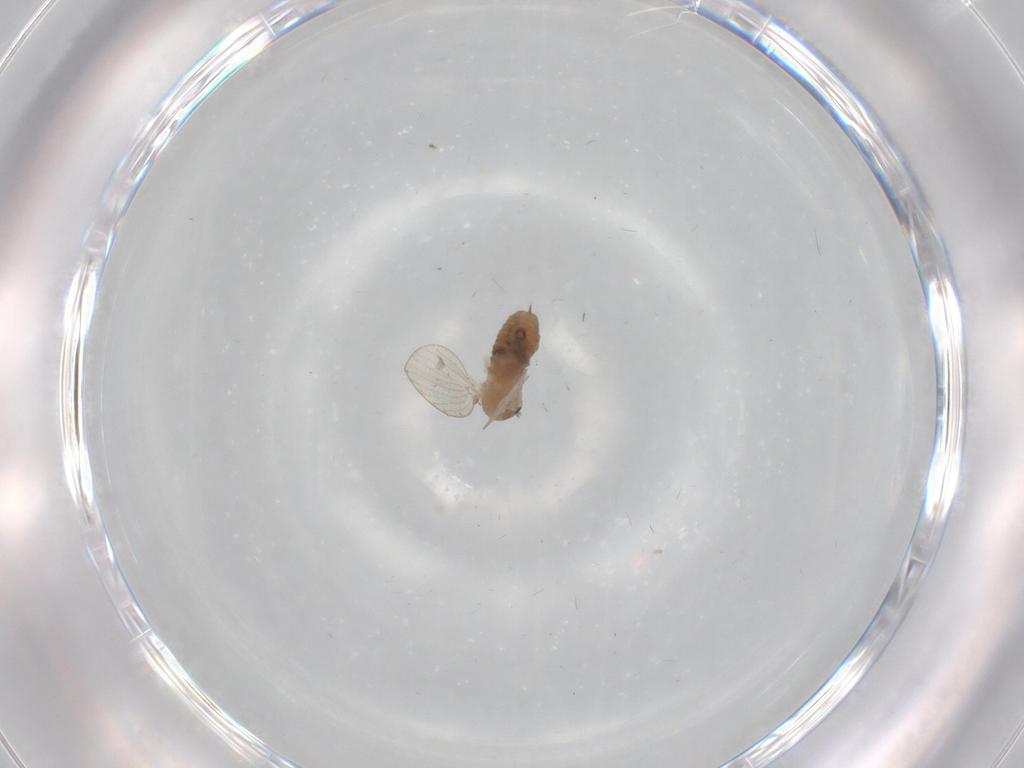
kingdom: Animalia
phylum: Arthropoda
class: Insecta
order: Diptera
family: Psychodidae
